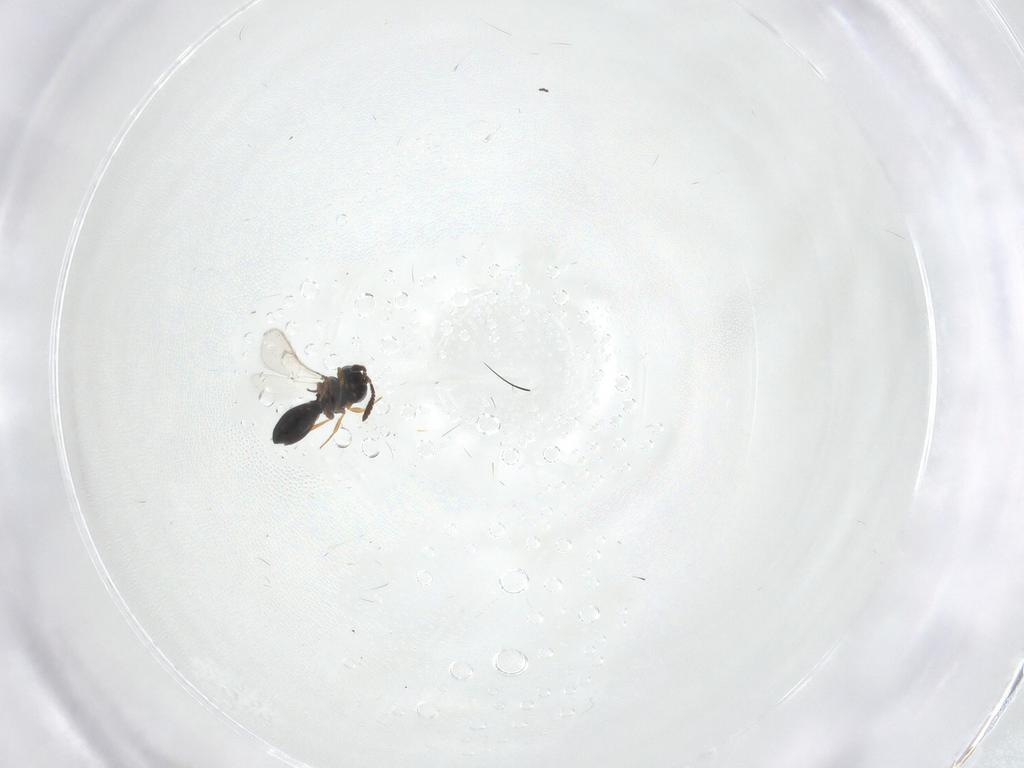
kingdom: Animalia
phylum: Arthropoda
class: Insecta
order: Hymenoptera
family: Scelionidae
